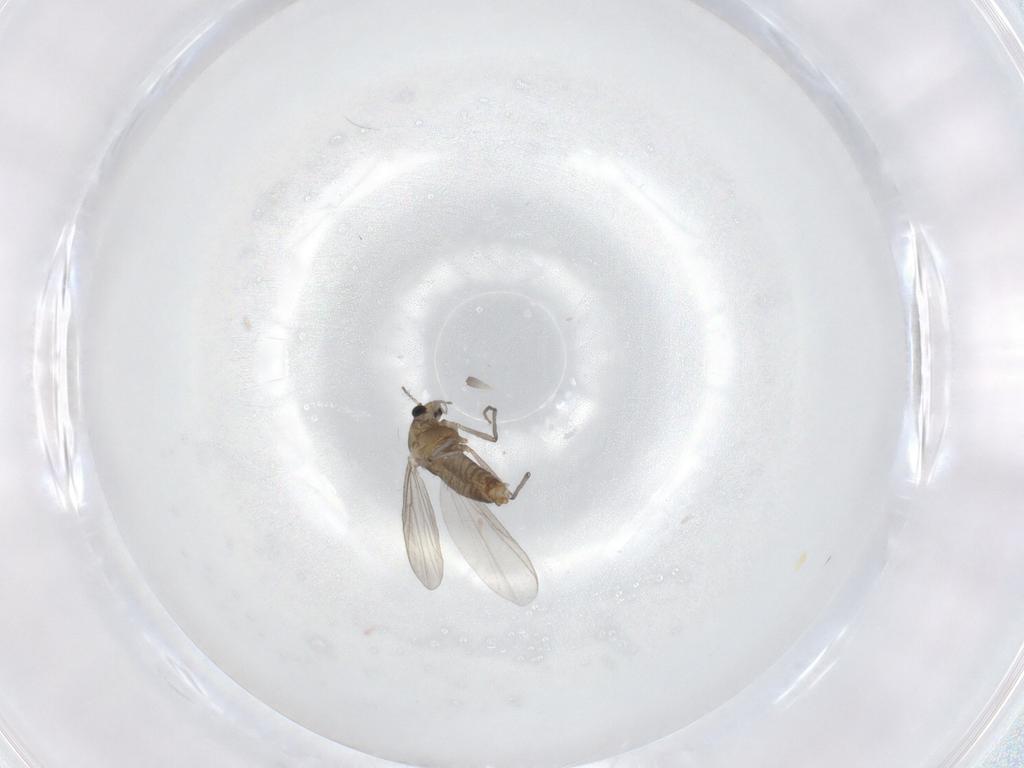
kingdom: Animalia
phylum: Arthropoda
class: Insecta
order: Diptera
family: Chironomidae
